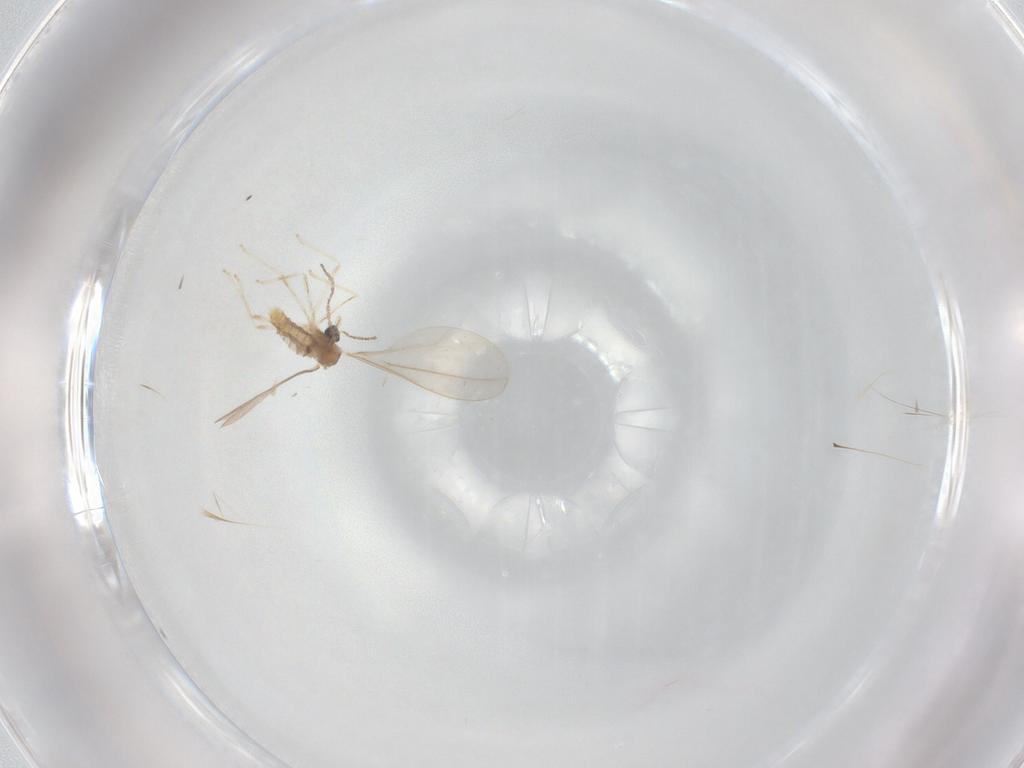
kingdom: Animalia
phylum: Arthropoda
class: Insecta
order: Diptera
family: Cecidomyiidae
